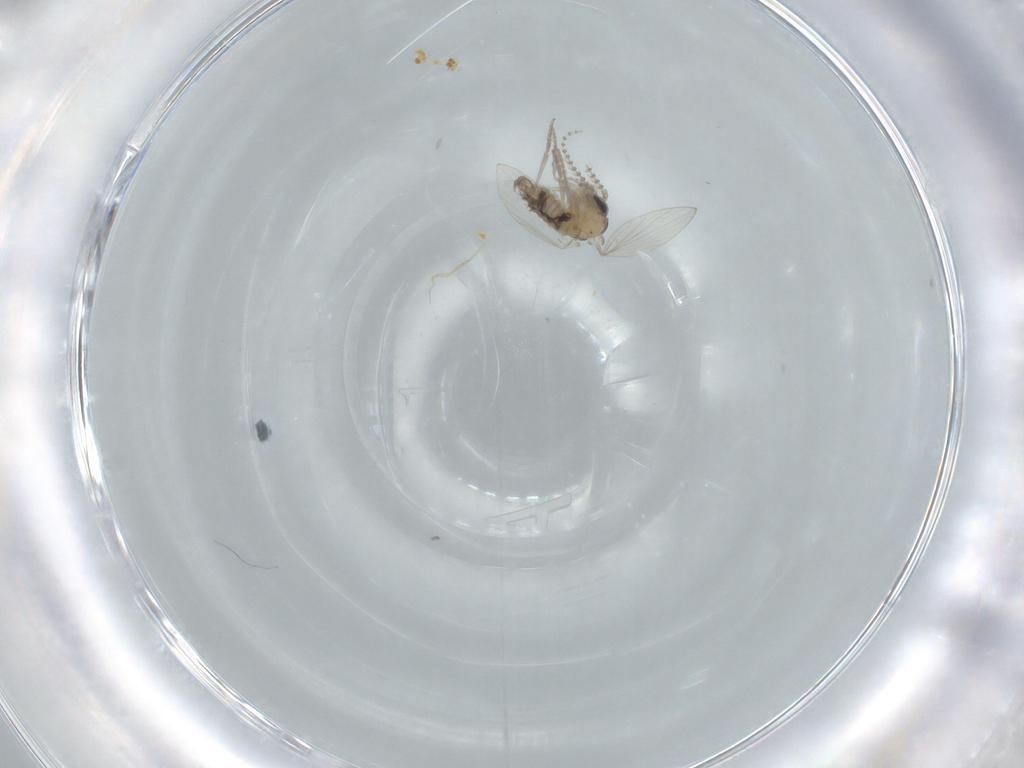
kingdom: Animalia
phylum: Arthropoda
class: Insecta
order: Diptera
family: Psychodidae
